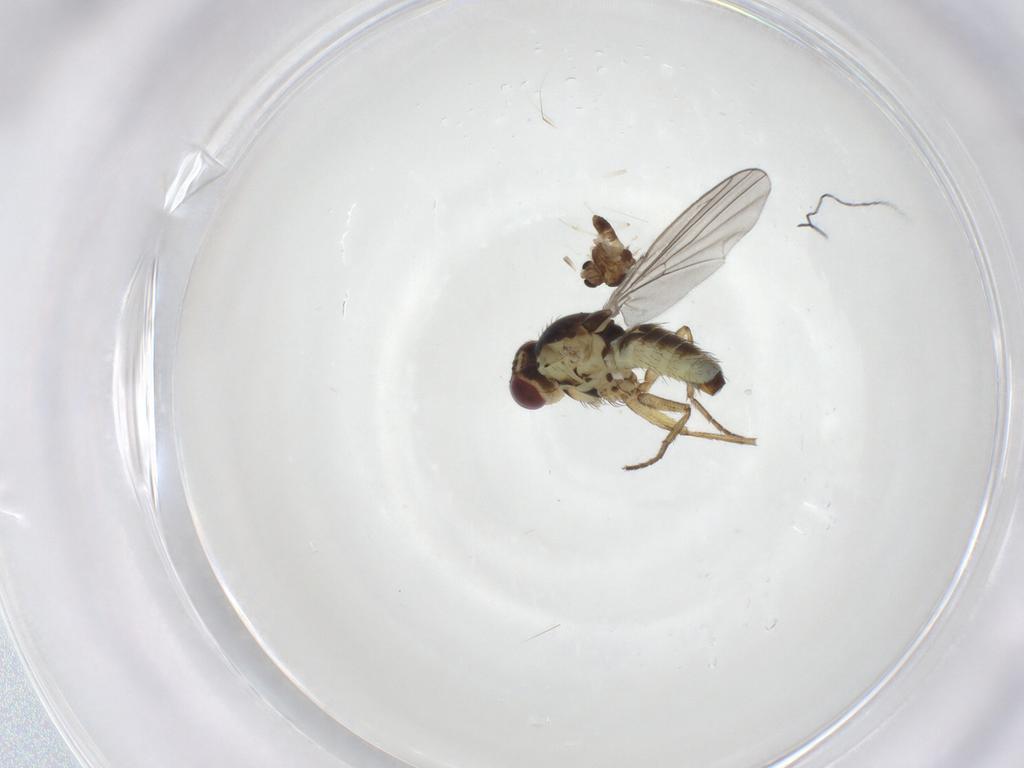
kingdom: Animalia
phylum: Arthropoda
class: Insecta
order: Diptera
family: Chironomidae
